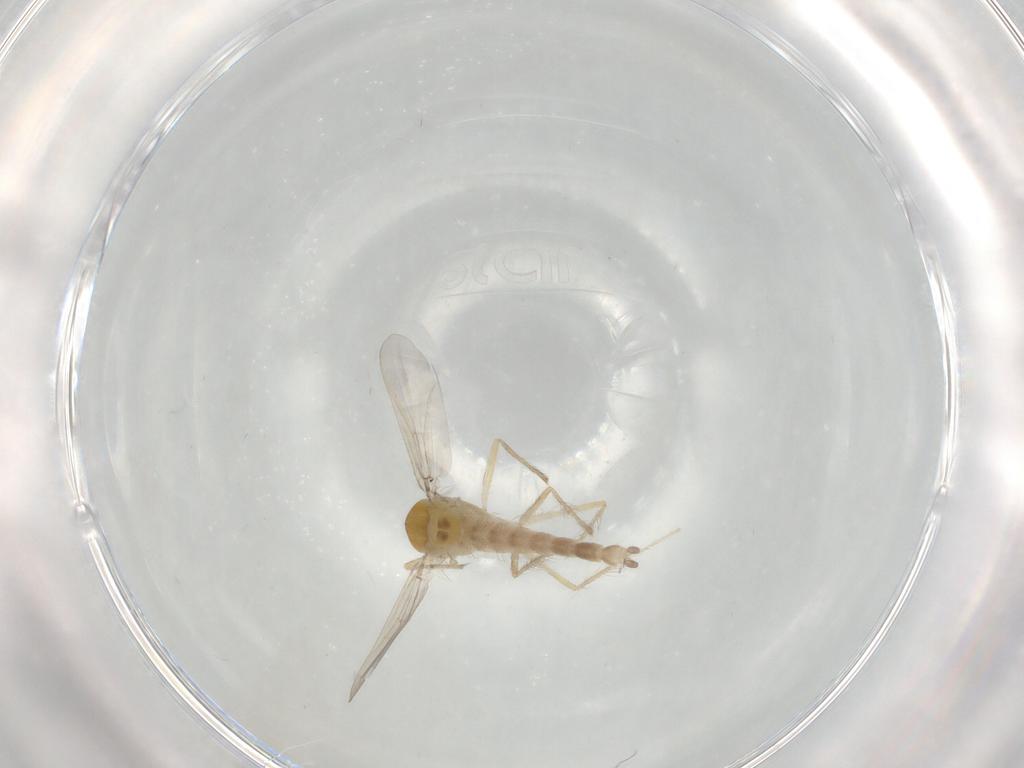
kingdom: Animalia
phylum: Arthropoda
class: Insecta
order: Diptera
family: Chironomidae
